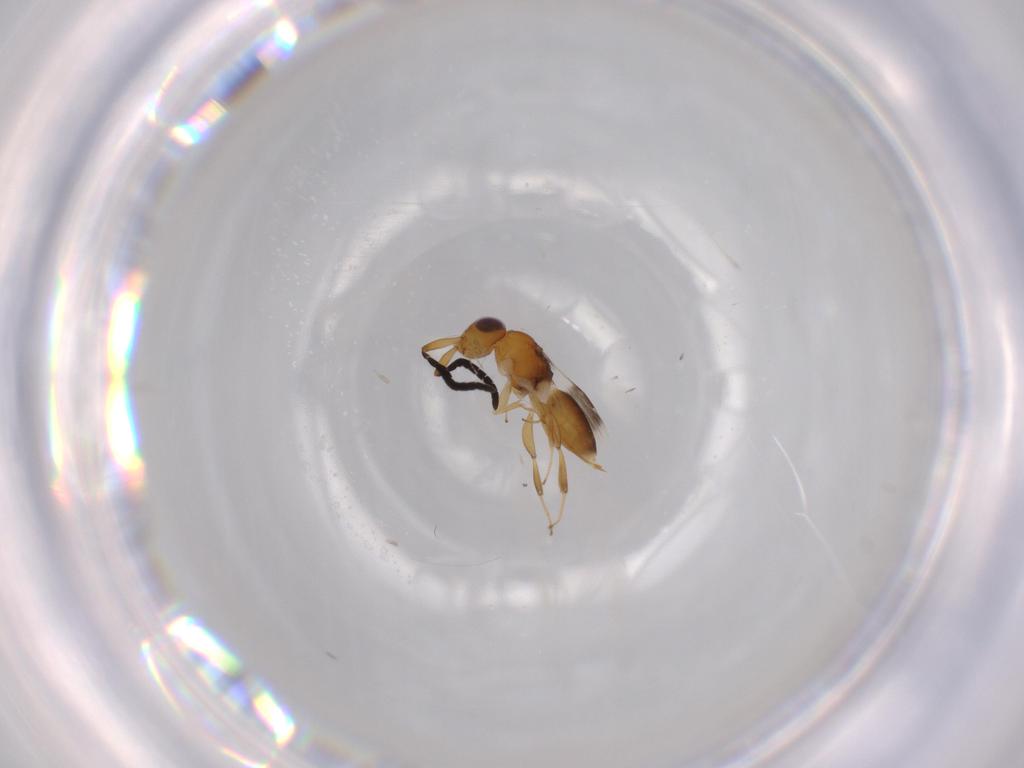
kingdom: Animalia
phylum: Arthropoda
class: Insecta
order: Hymenoptera
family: Megaspilidae
